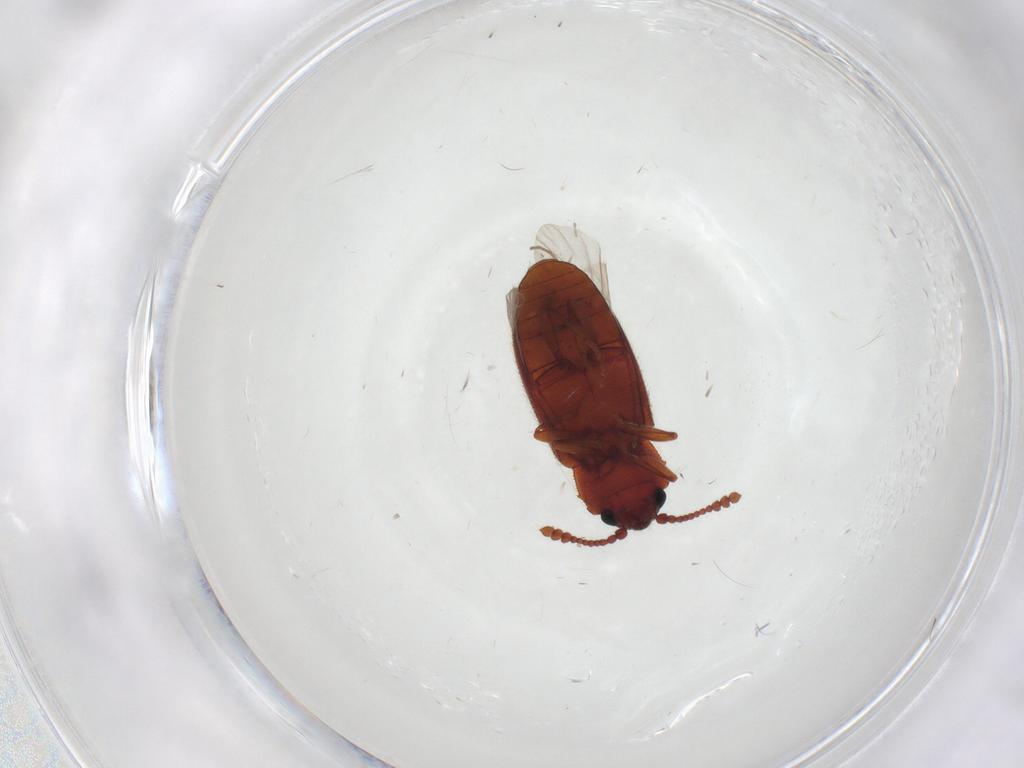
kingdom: Animalia
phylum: Arthropoda
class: Insecta
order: Coleoptera
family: Cryptophagidae
